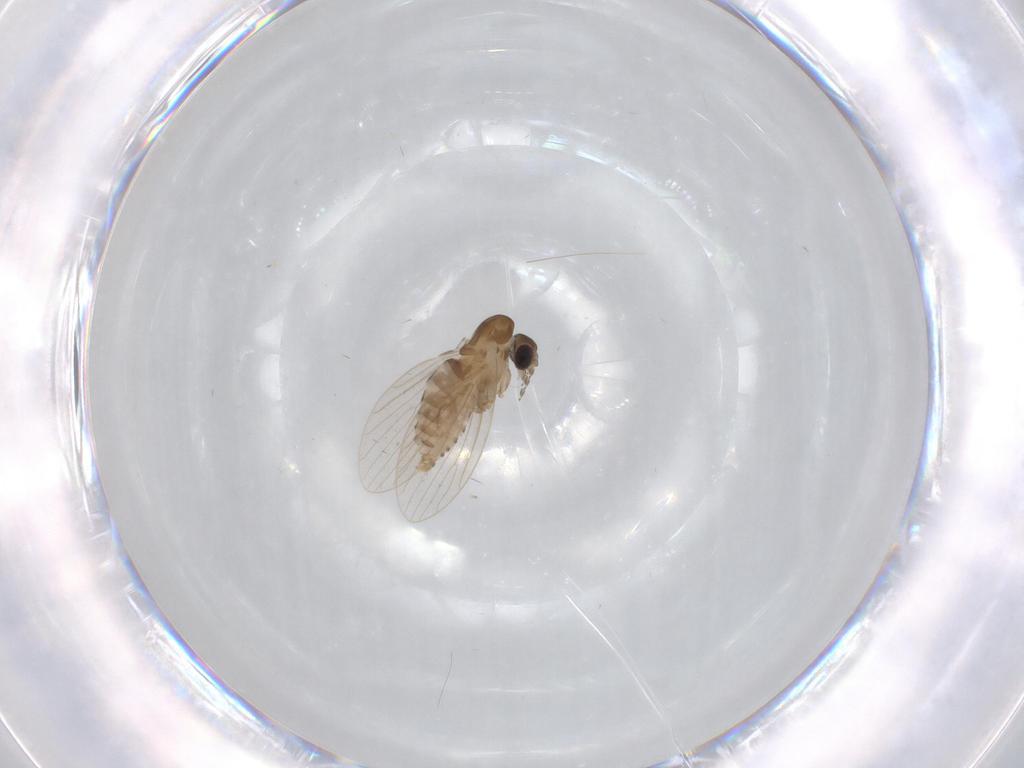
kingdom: Animalia
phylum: Arthropoda
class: Insecta
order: Diptera
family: Psychodidae
